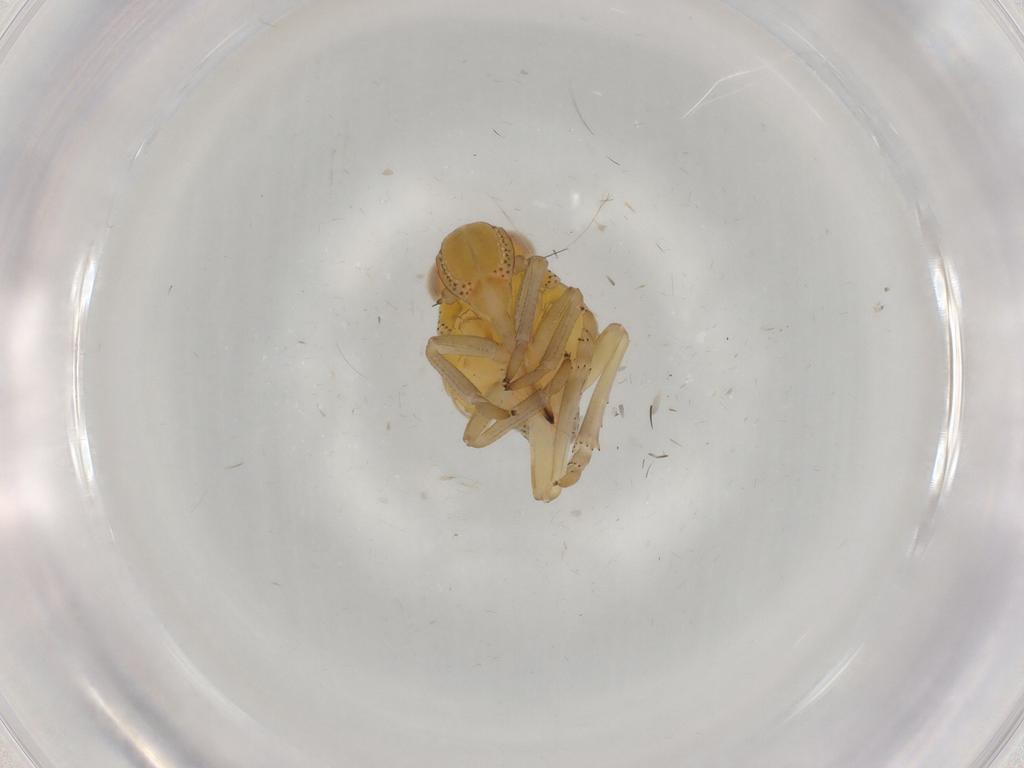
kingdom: Animalia
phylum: Arthropoda
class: Insecta
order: Hemiptera
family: Tropiduchidae
